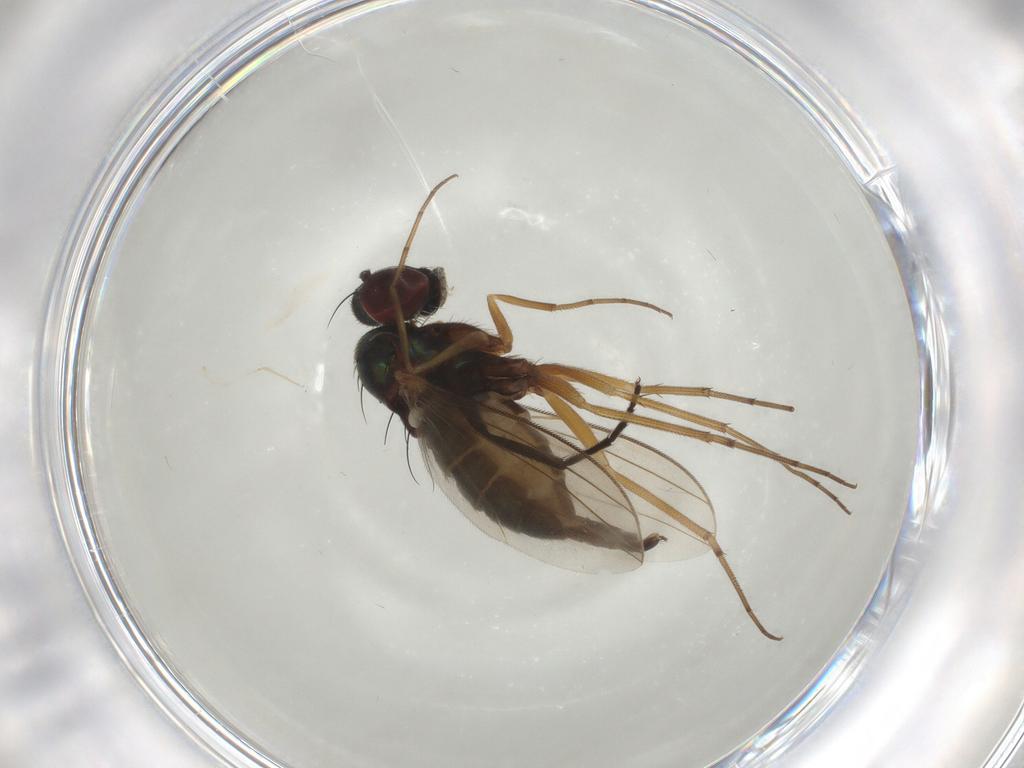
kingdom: Animalia
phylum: Arthropoda
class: Insecta
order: Diptera
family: Dolichopodidae
